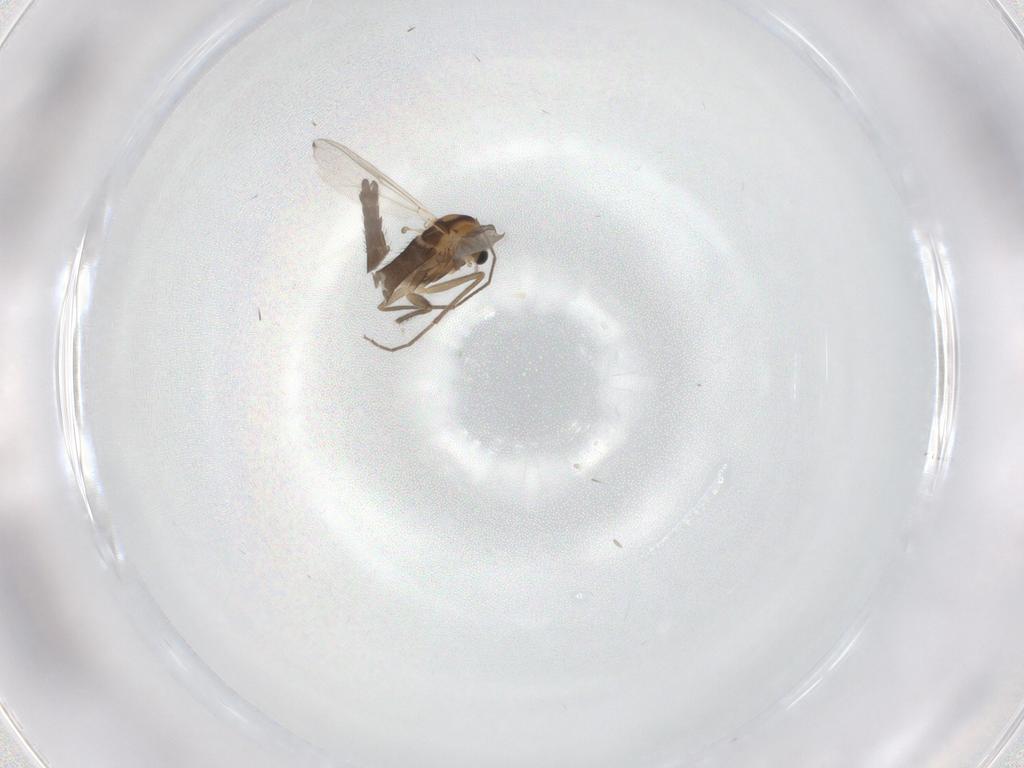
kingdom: Animalia
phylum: Arthropoda
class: Insecta
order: Diptera
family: Chironomidae
